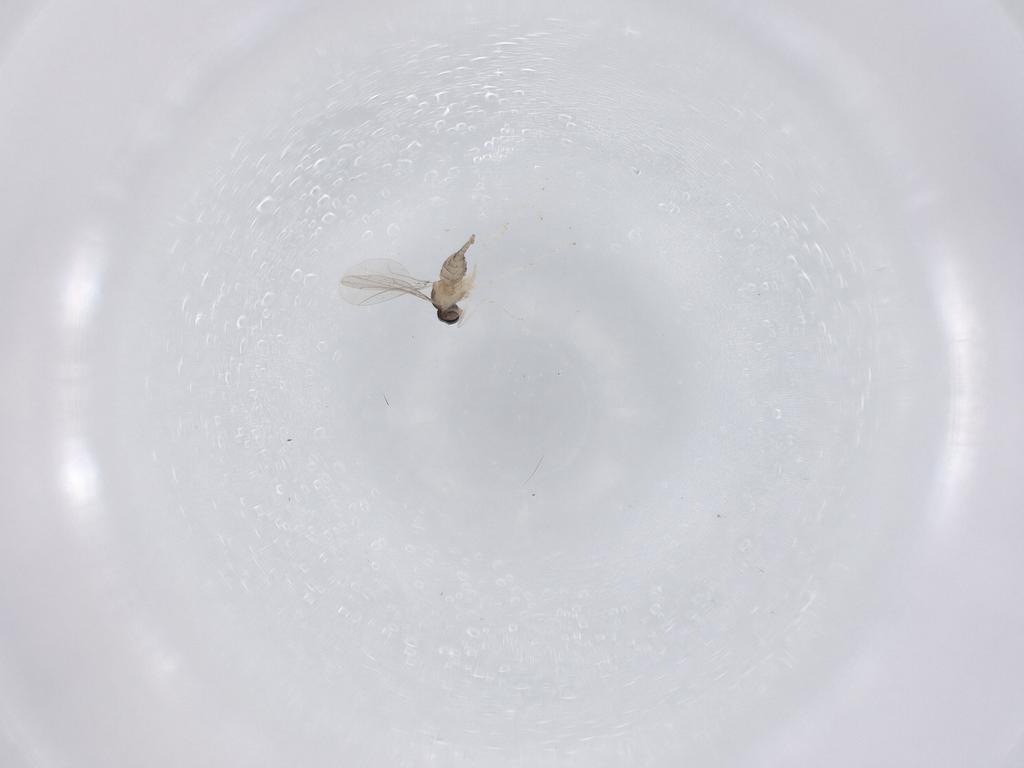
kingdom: Animalia
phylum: Arthropoda
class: Insecta
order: Diptera
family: Cecidomyiidae
